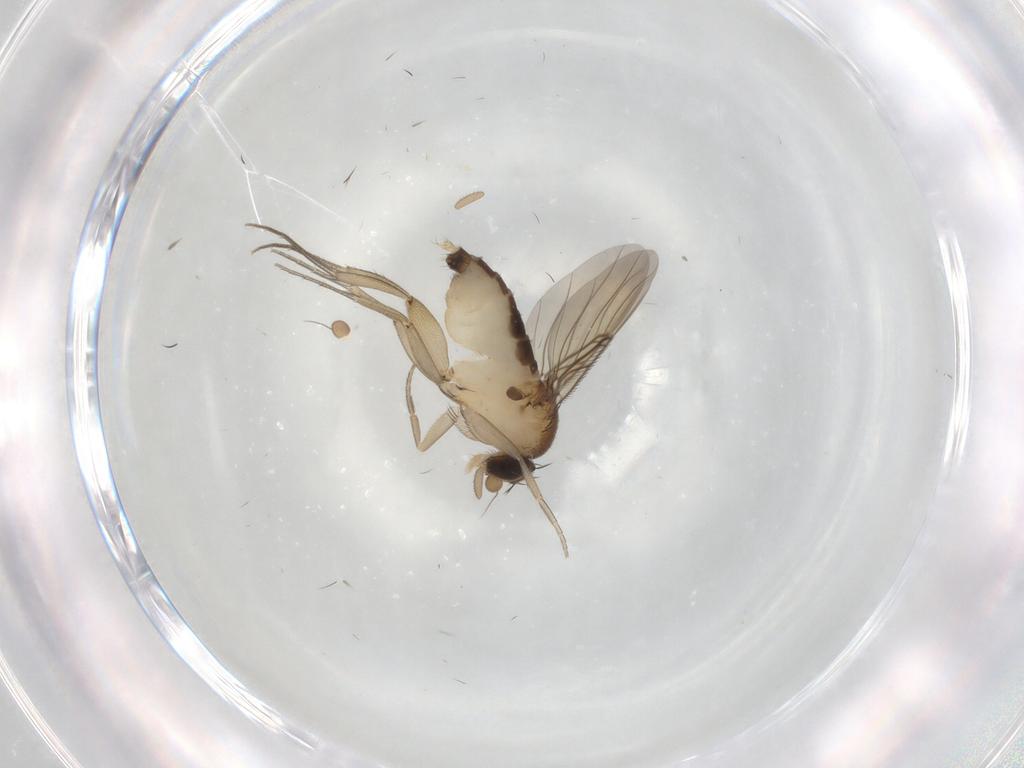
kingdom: Animalia
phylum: Arthropoda
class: Insecta
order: Diptera
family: Phoridae
